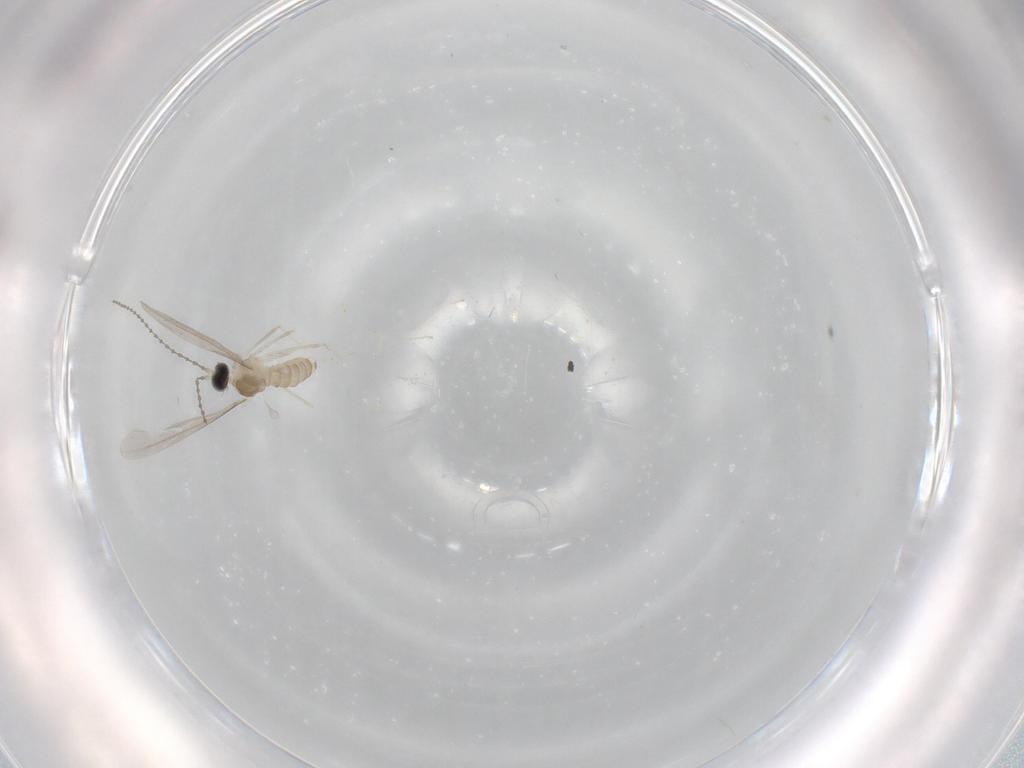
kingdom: Animalia
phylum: Arthropoda
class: Insecta
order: Diptera
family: Cecidomyiidae
